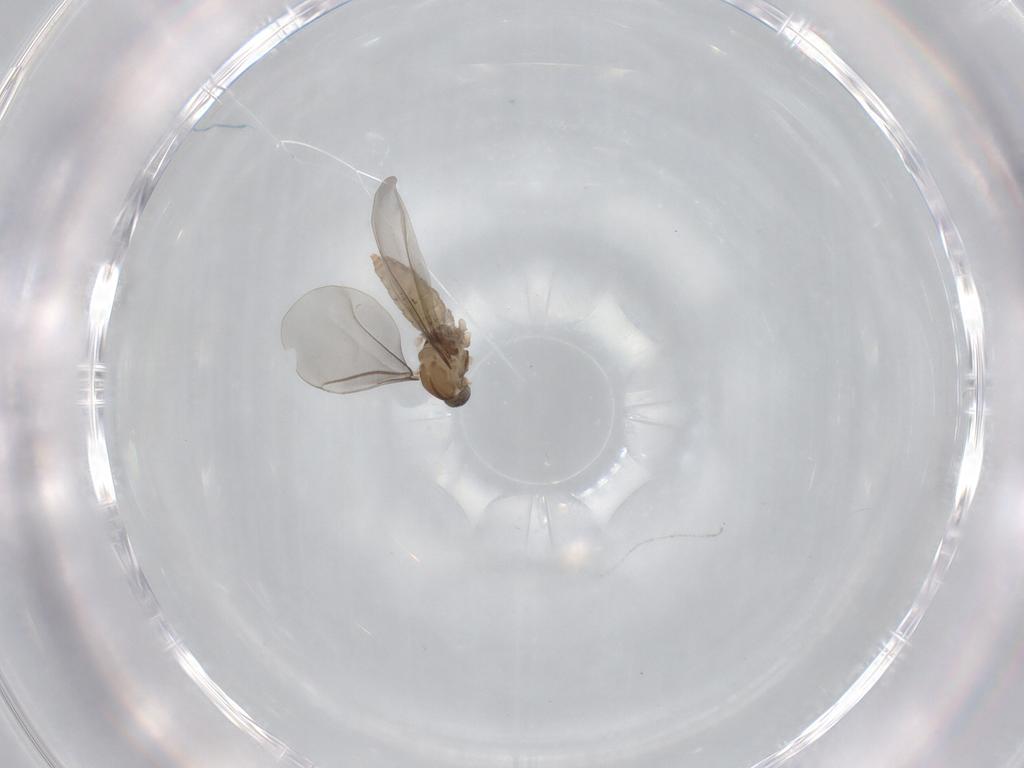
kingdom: Animalia
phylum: Arthropoda
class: Insecta
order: Diptera
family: Cecidomyiidae
